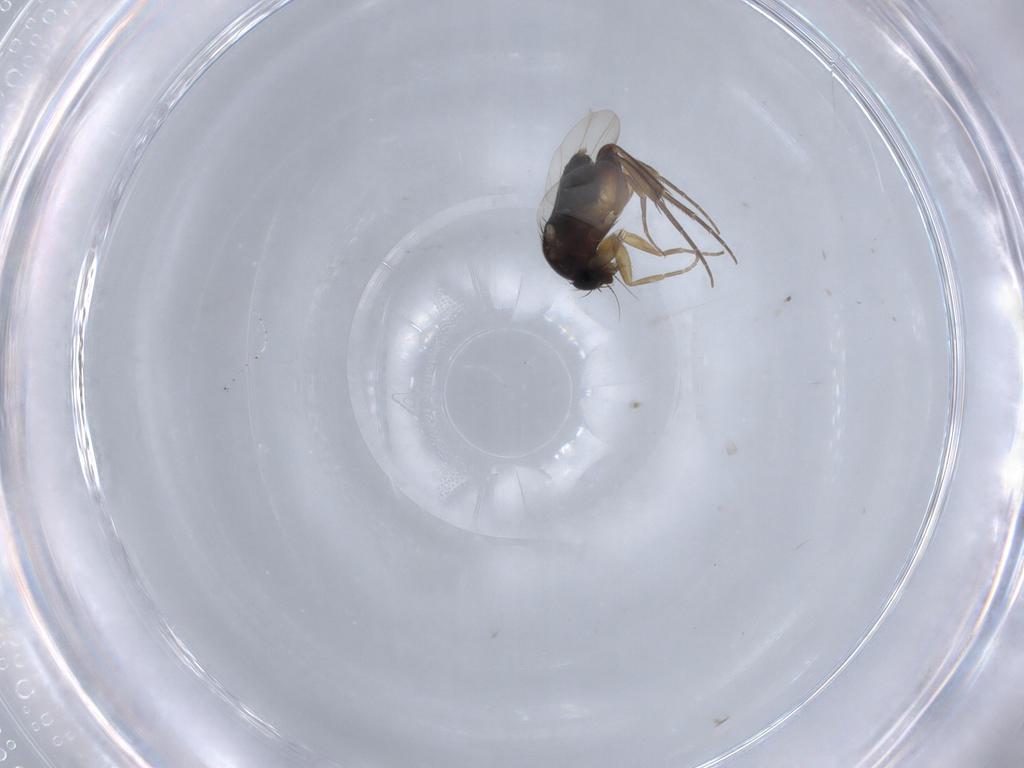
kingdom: Animalia
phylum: Arthropoda
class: Insecta
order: Diptera
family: Phoridae
